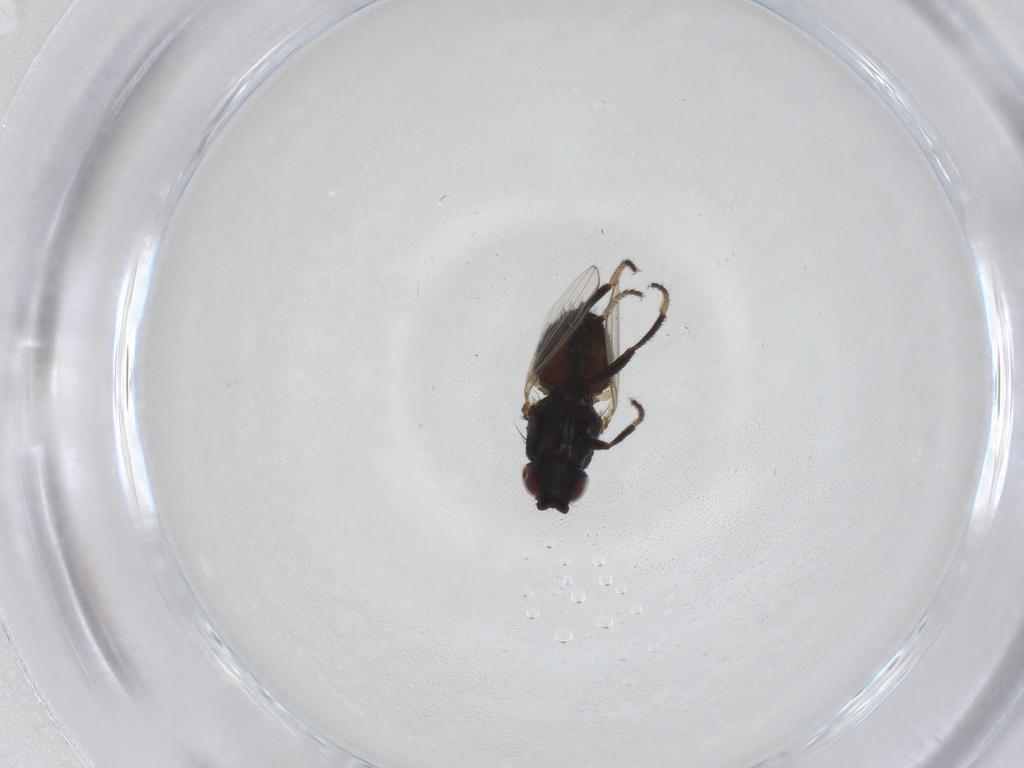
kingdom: Animalia
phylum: Arthropoda
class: Insecta
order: Diptera
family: Milichiidae
